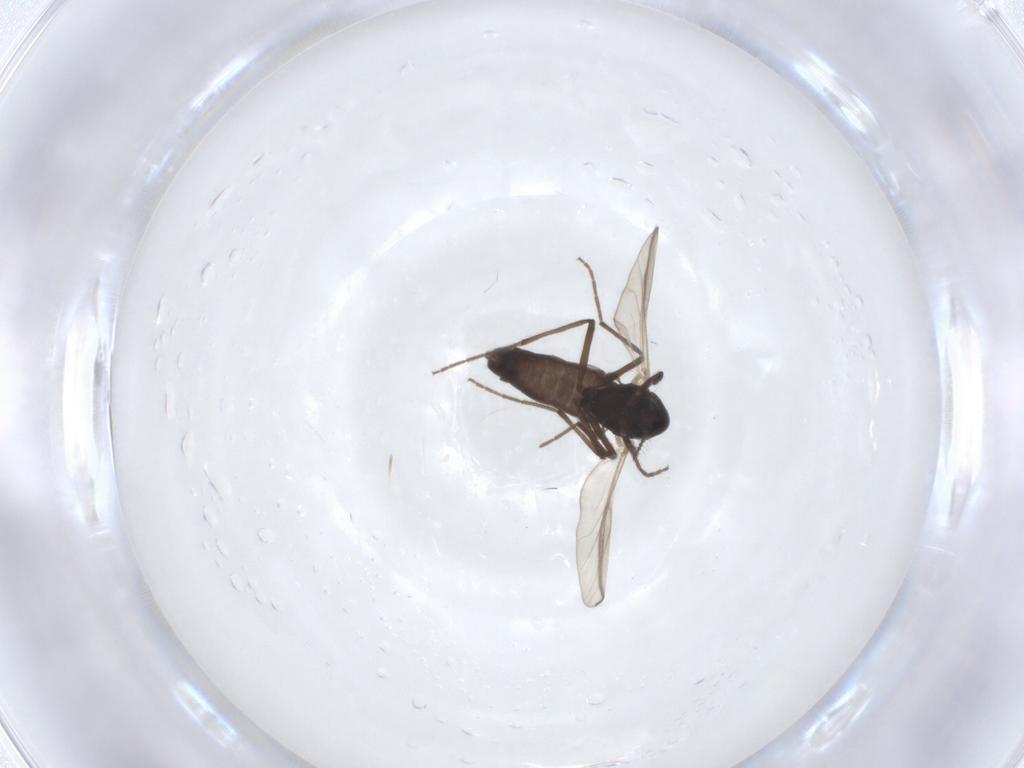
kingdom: Animalia
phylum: Arthropoda
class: Insecta
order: Diptera
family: Chironomidae
